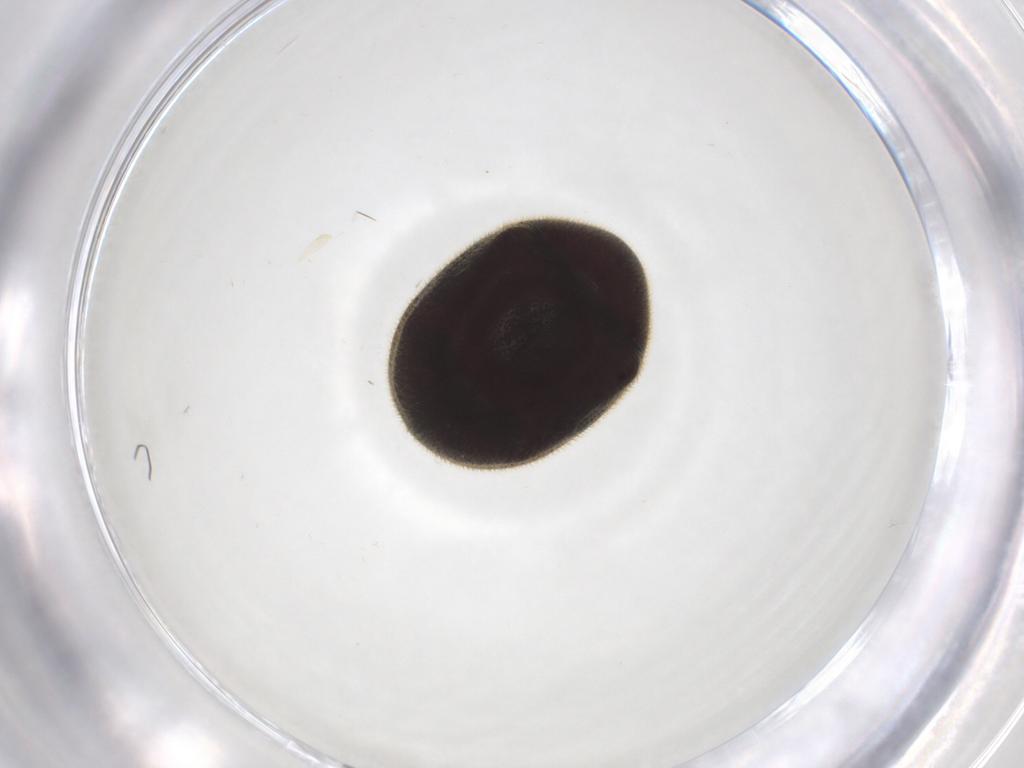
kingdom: Animalia
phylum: Arthropoda
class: Insecta
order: Coleoptera
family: Ptinidae
